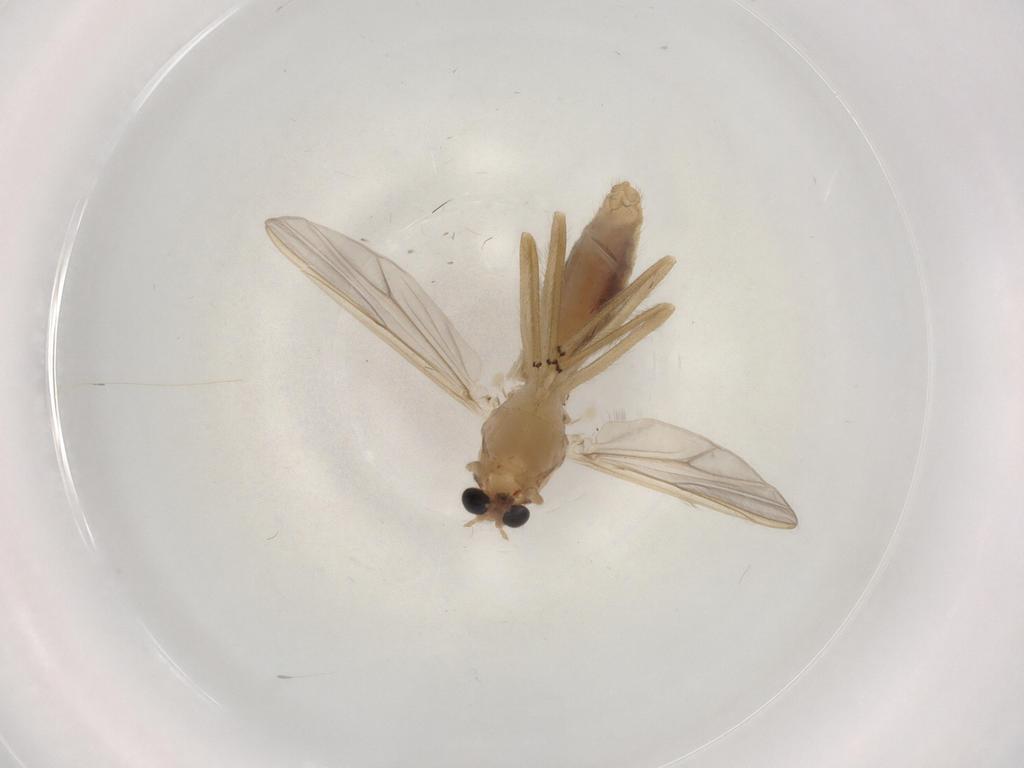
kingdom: Animalia
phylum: Arthropoda
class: Insecta
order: Diptera
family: Chironomidae
